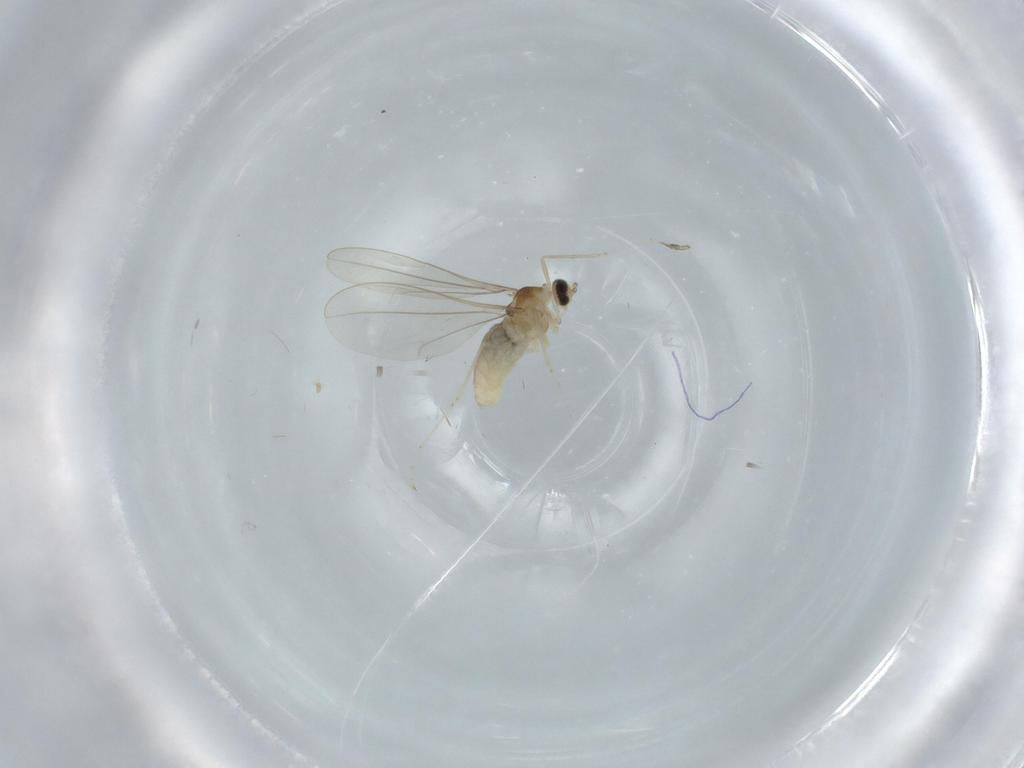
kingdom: Animalia
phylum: Arthropoda
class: Insecta
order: Diptera
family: Cecidomyiidae
